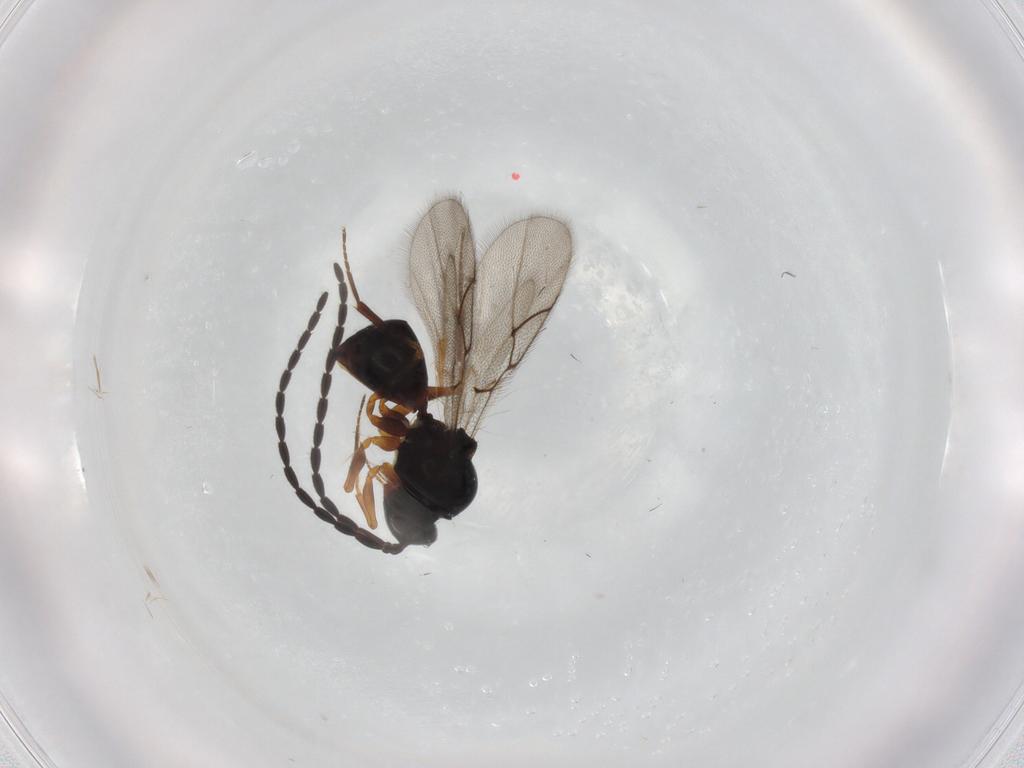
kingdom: Animalia
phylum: Arthropoda
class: Insecta
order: Hymenoptera
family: Figitidae
